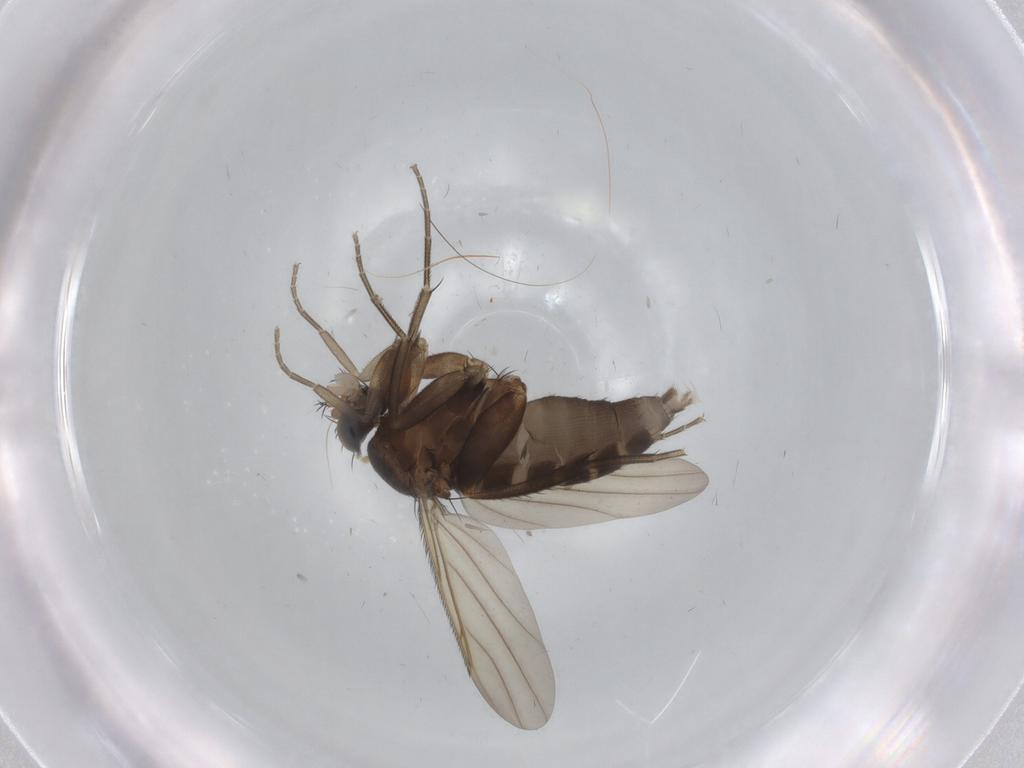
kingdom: Animalia
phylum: Arthropoda
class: Insecta
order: Diptera
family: Phoridae
